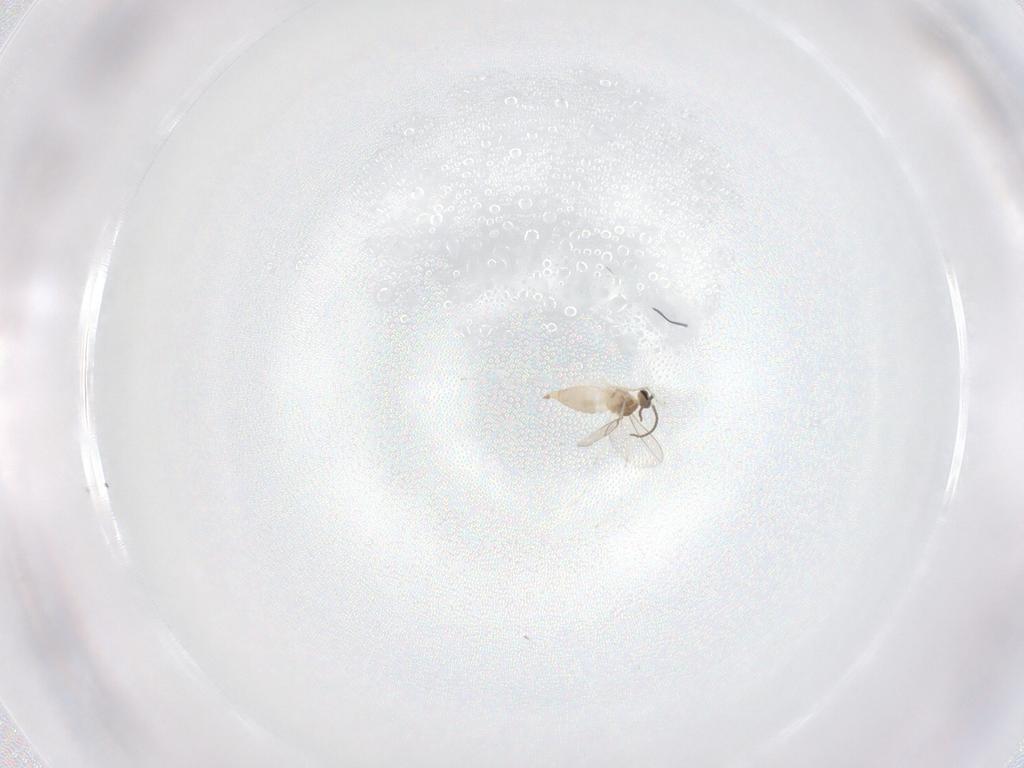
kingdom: Animalia
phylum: Arthropoda
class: Insecta
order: Diptera
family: Cecidomyiidae
